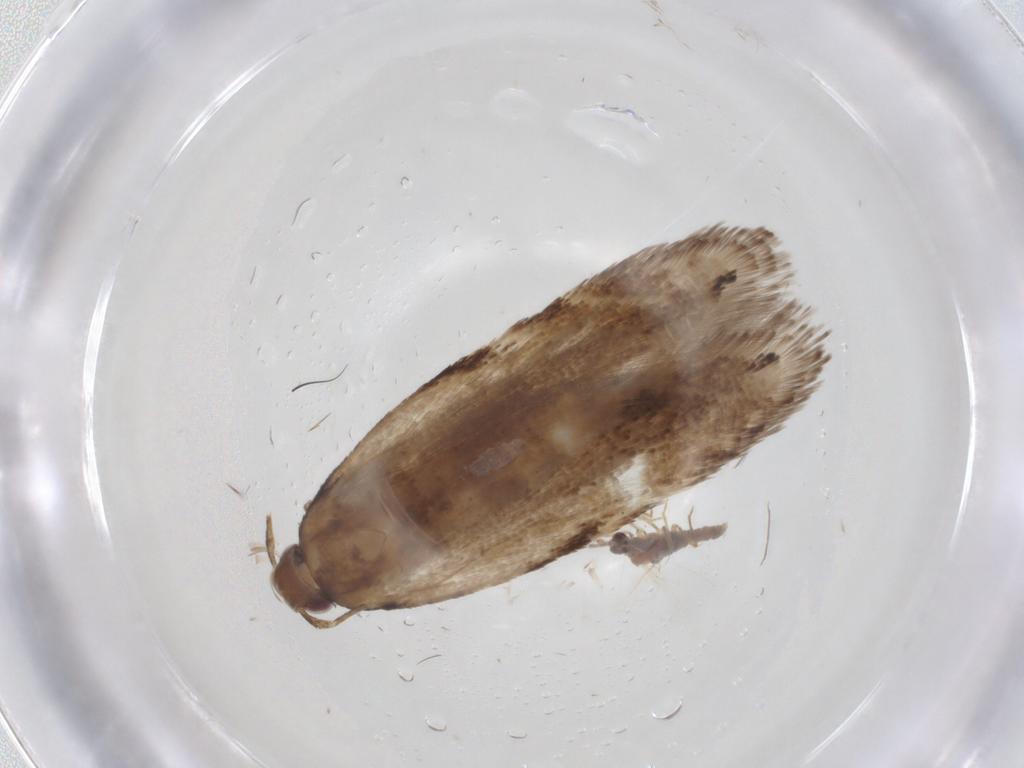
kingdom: Animalia
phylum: Arthropoda
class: Insecta
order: Lepidoptera
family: Gelechiidae
